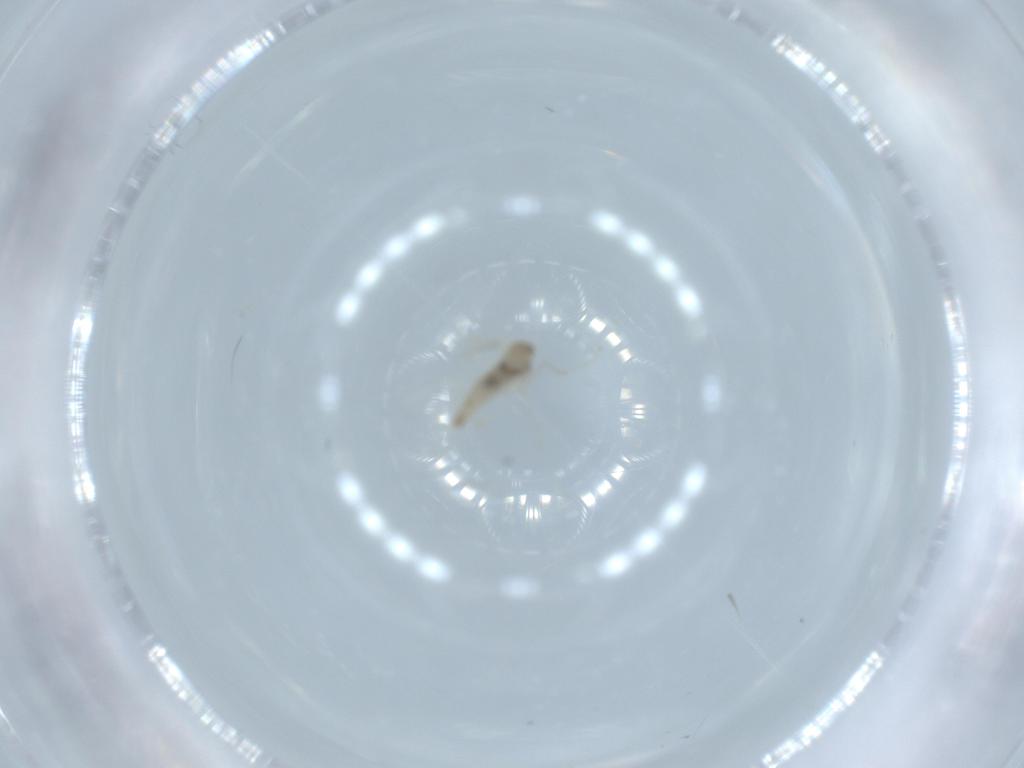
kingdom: Animalia
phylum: Arthropoda
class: Insecta
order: Diptera
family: Cecidomyiidae
